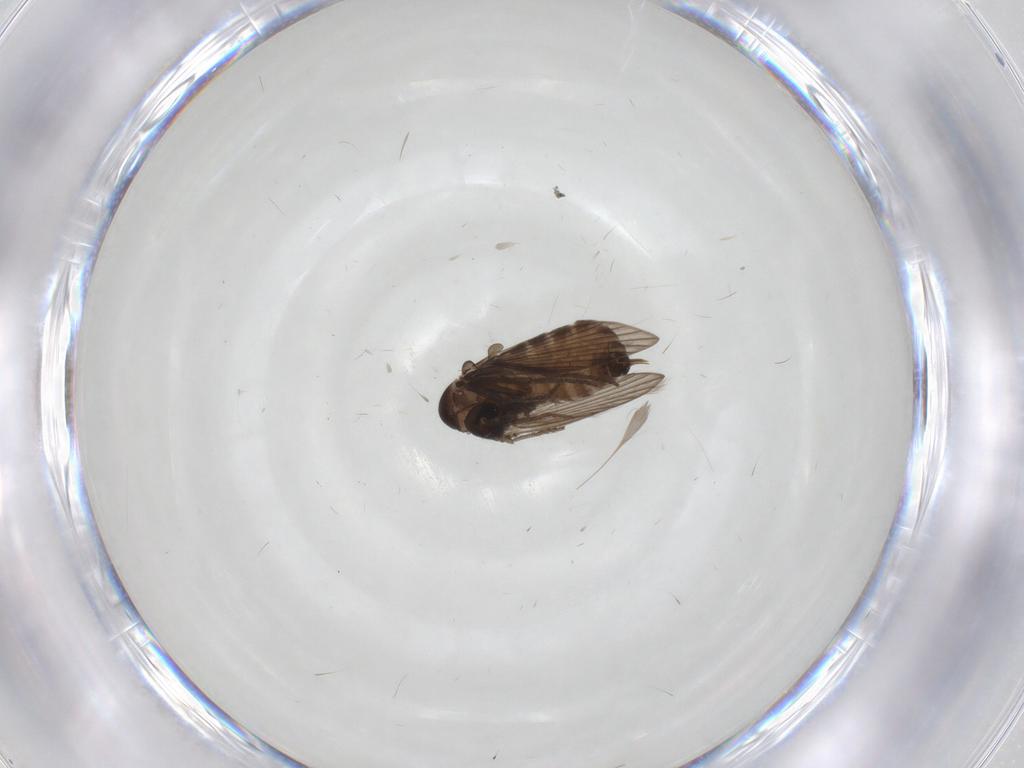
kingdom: Animalia
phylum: Arthropoda
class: Insecta
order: Diptera
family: Psychodidae
